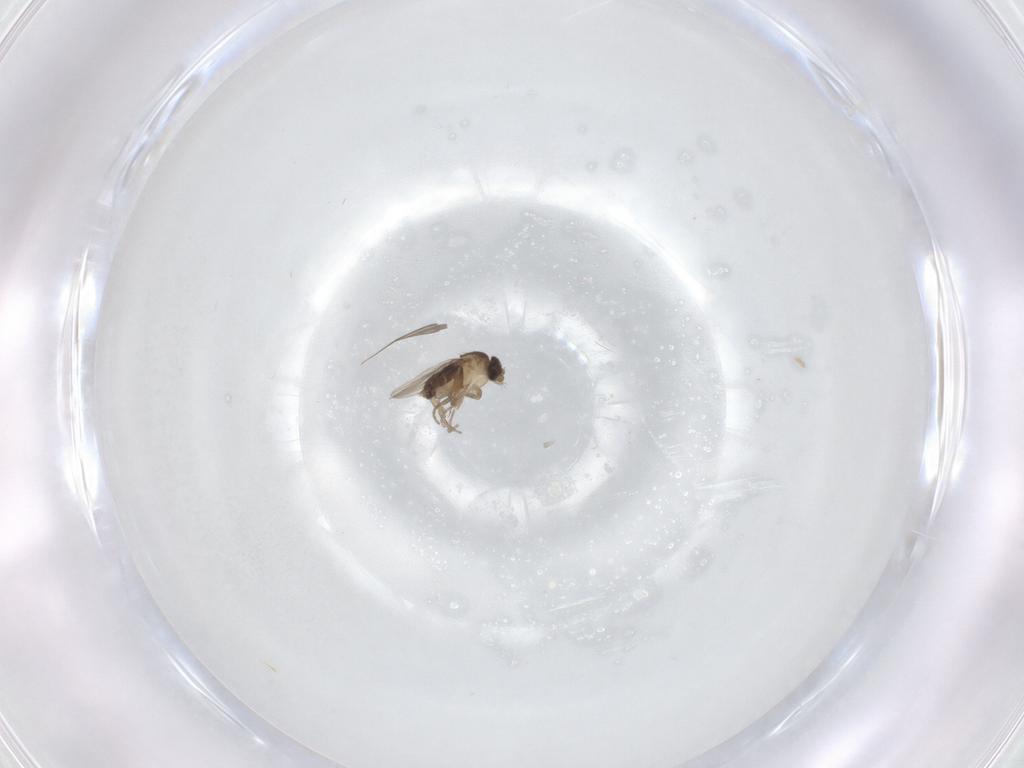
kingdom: Animalia
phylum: Arthropoda
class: Insecta
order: Diptera
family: Phoridae
